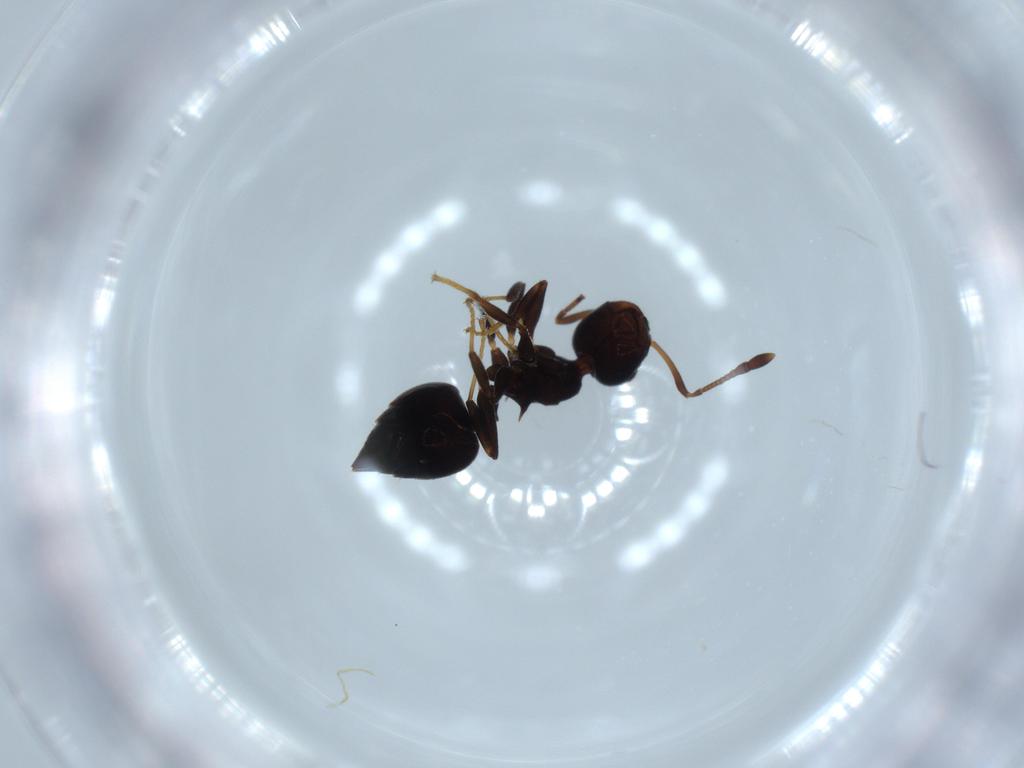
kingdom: Animalia
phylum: Arthropoda
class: Insecta
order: Hymenoptera
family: Formicidae
